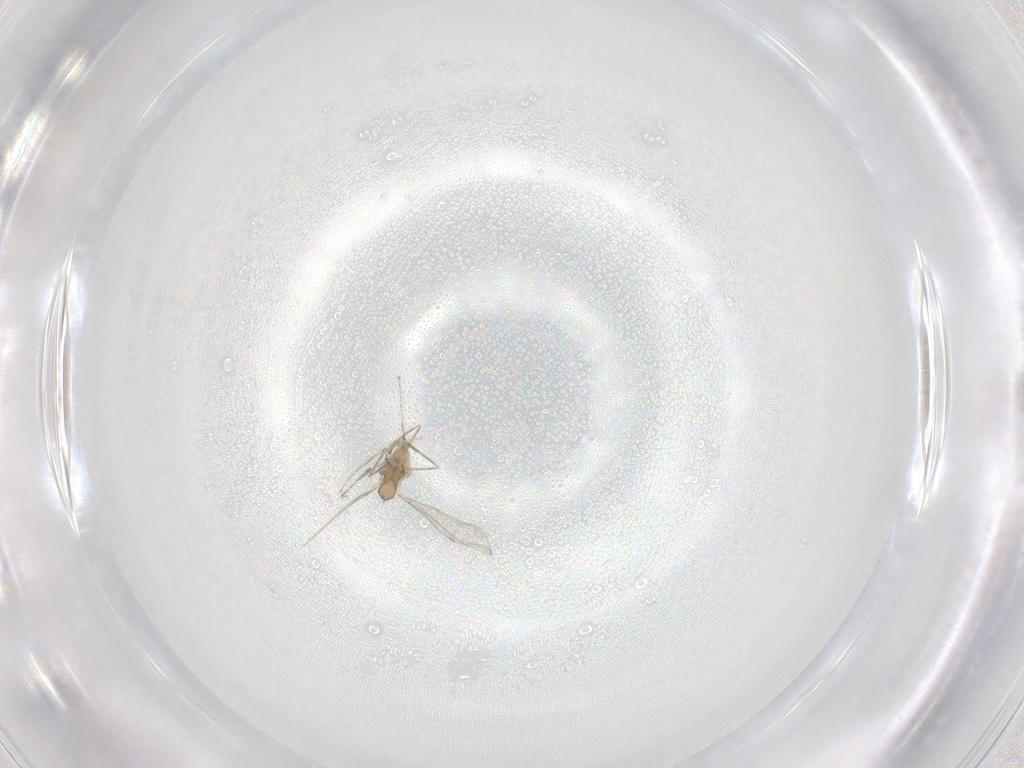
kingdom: Animalia
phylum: Arthropoda
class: Insecta
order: Diptera
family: Cecidomyiidae
